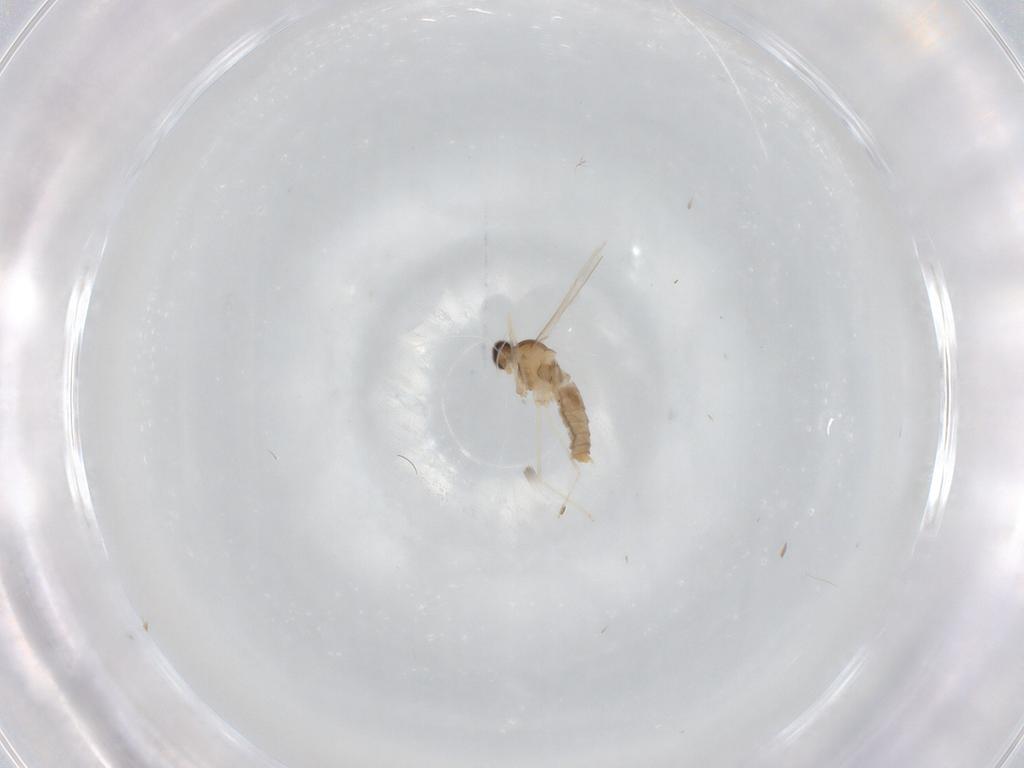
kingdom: Animalia
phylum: Arthropoda
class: Insecta
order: Diptera
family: Cecidomyiidae
